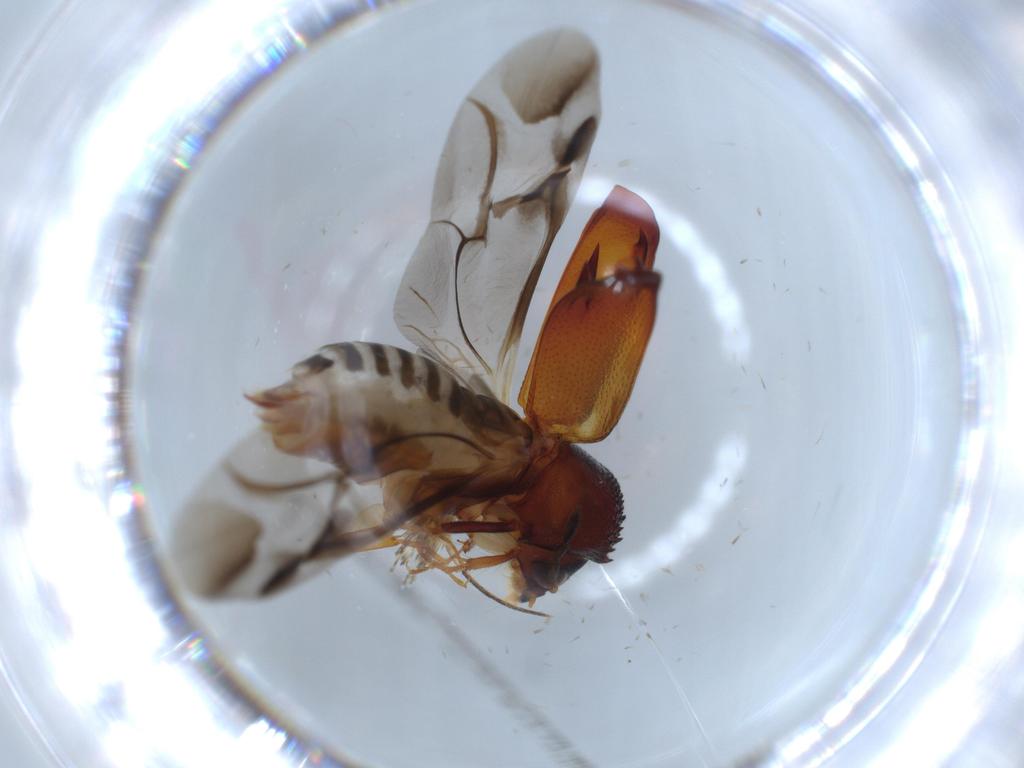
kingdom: Animalia
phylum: Arthropoda
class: Insecta
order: Coleoptera
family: Bostrichidae
